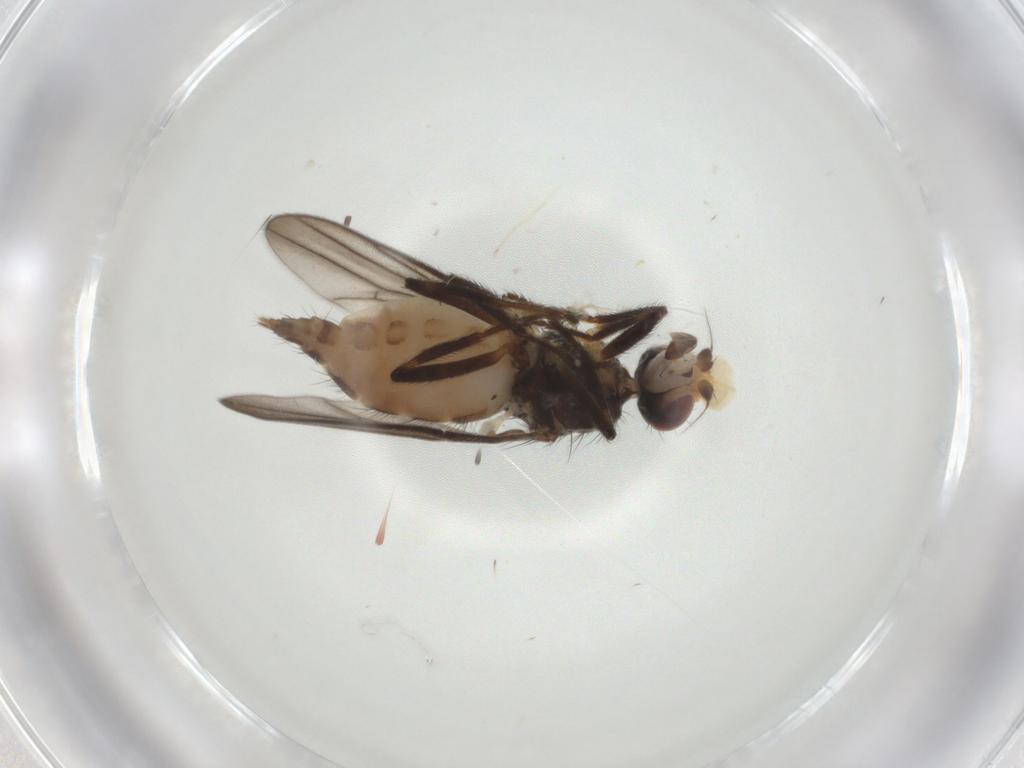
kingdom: Animalia
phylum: Arthropoda
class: Insecta
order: Diptera
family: Chloropidae
